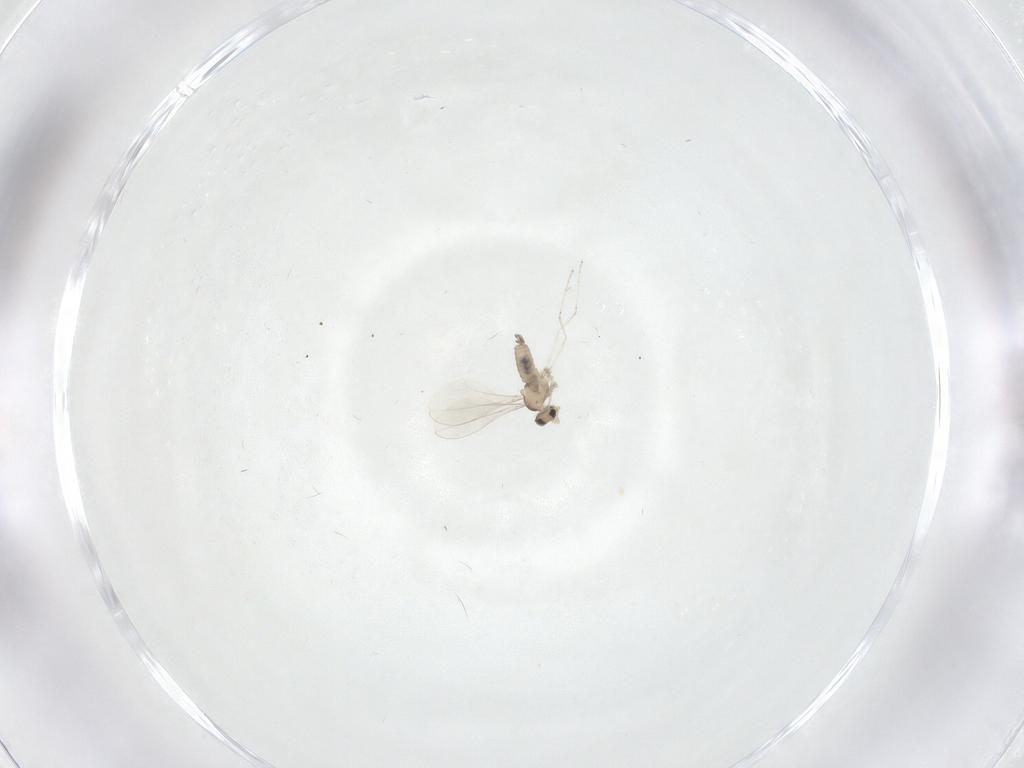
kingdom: Animalia
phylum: Arthropoda
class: Insecta
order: Diptera
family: Cecidomyiidae
